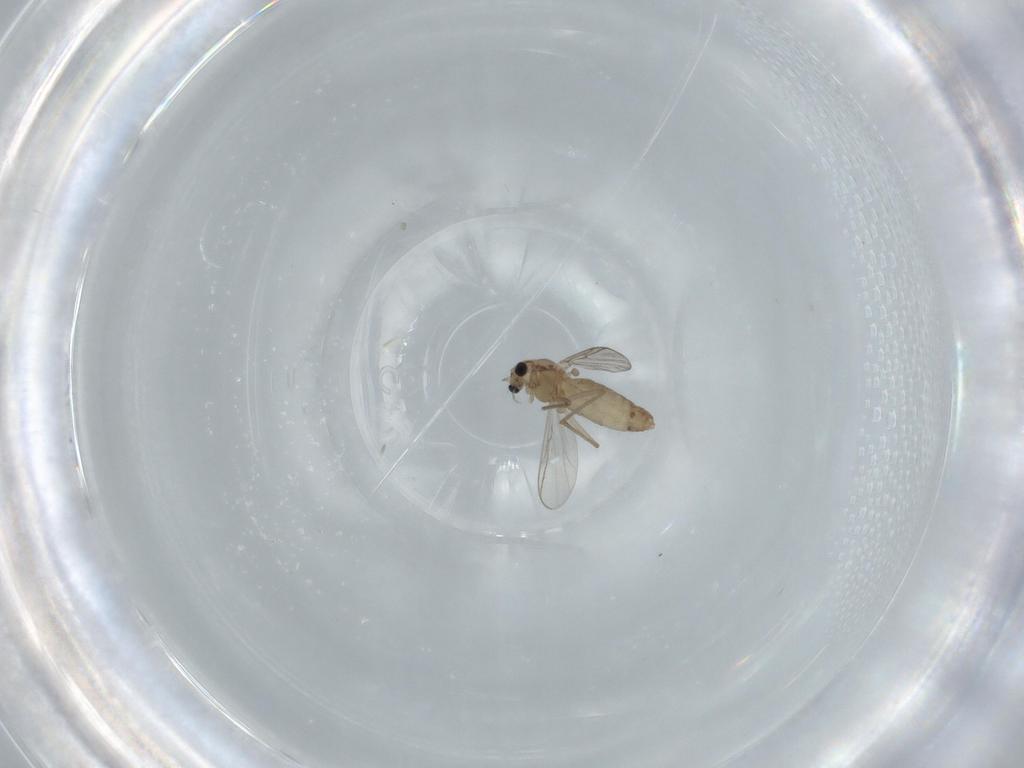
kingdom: Animalia
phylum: Arthropoda
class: Insecta
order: Diptera
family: Chironomidae
